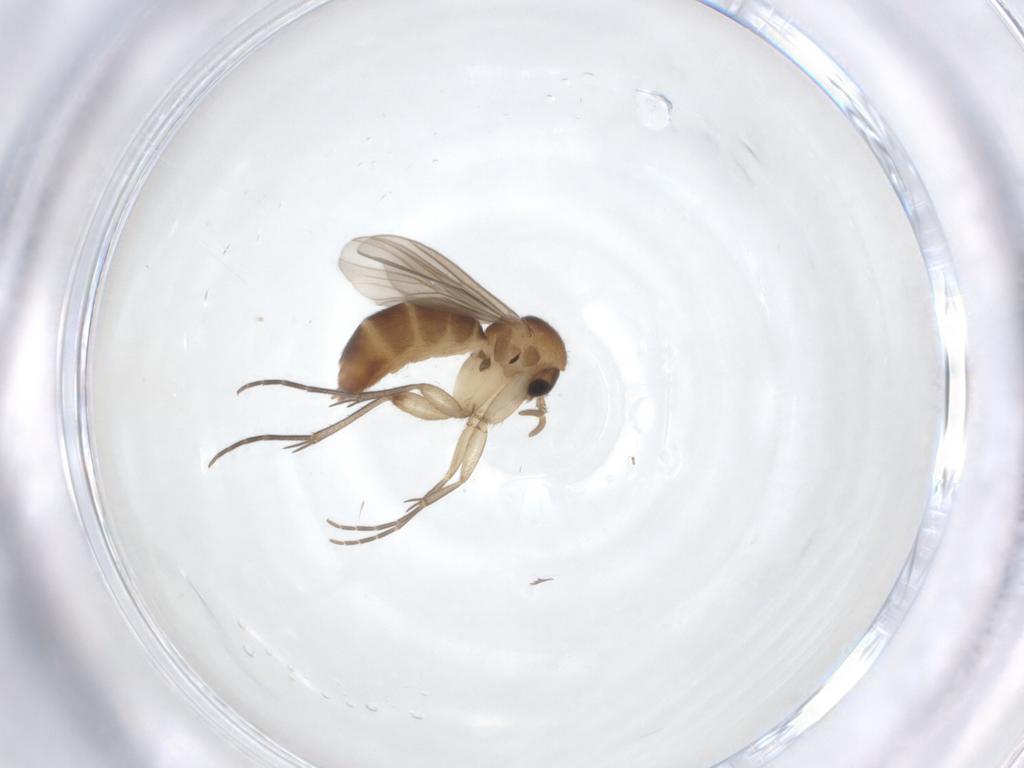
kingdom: Animalia
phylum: Arthropoda
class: Insecta
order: Diptera
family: Mycetophilidae
